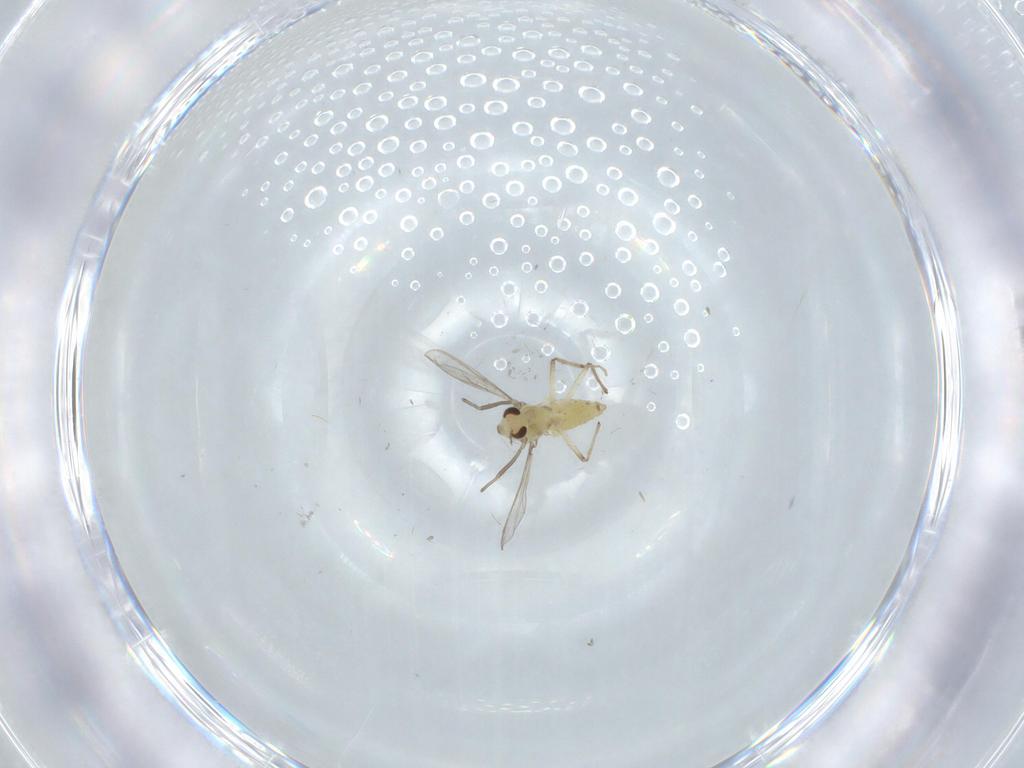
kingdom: Animalia
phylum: Arthropoda
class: Insecta
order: Diptera
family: Chironomidae
